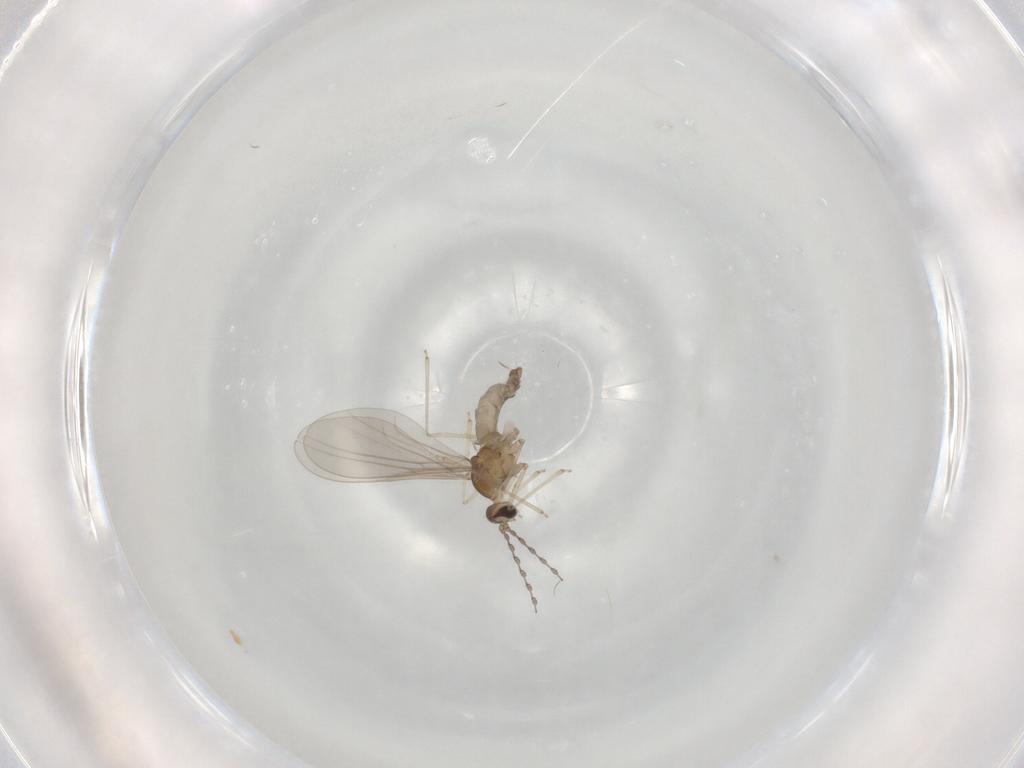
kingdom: Animalia
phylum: Arthropoda
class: Insecta
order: Diptera
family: Cecidomyiidae
